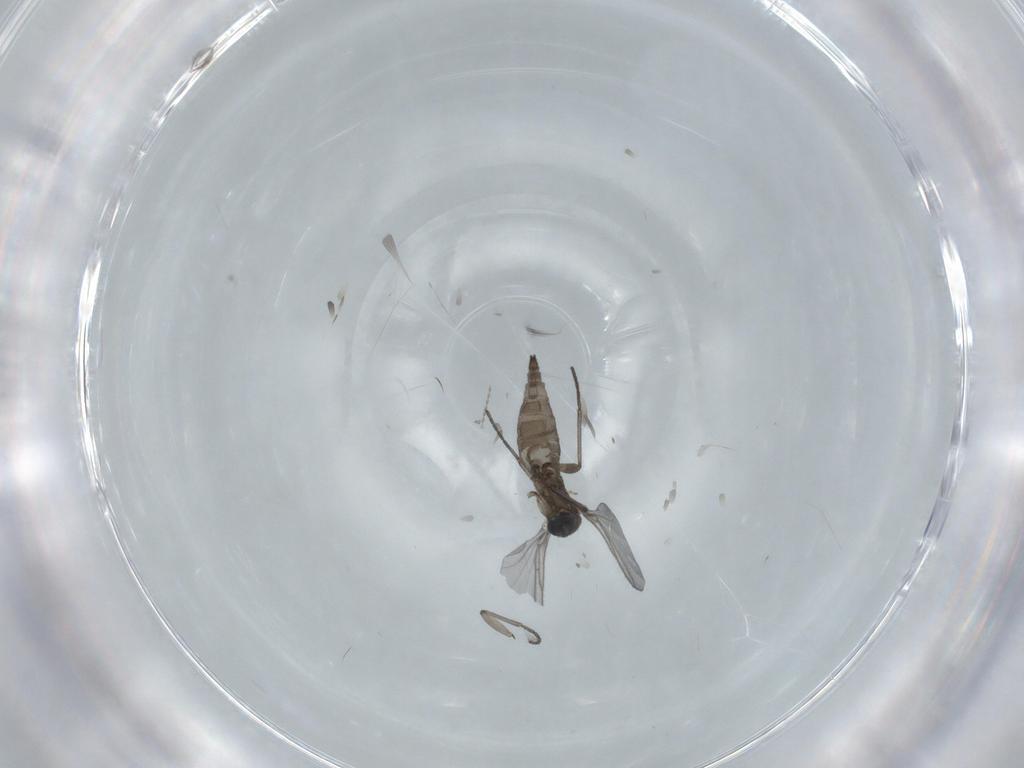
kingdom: Animalia
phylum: Arthropoda
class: Insecta
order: Diptera
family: Cecidomyiidae
